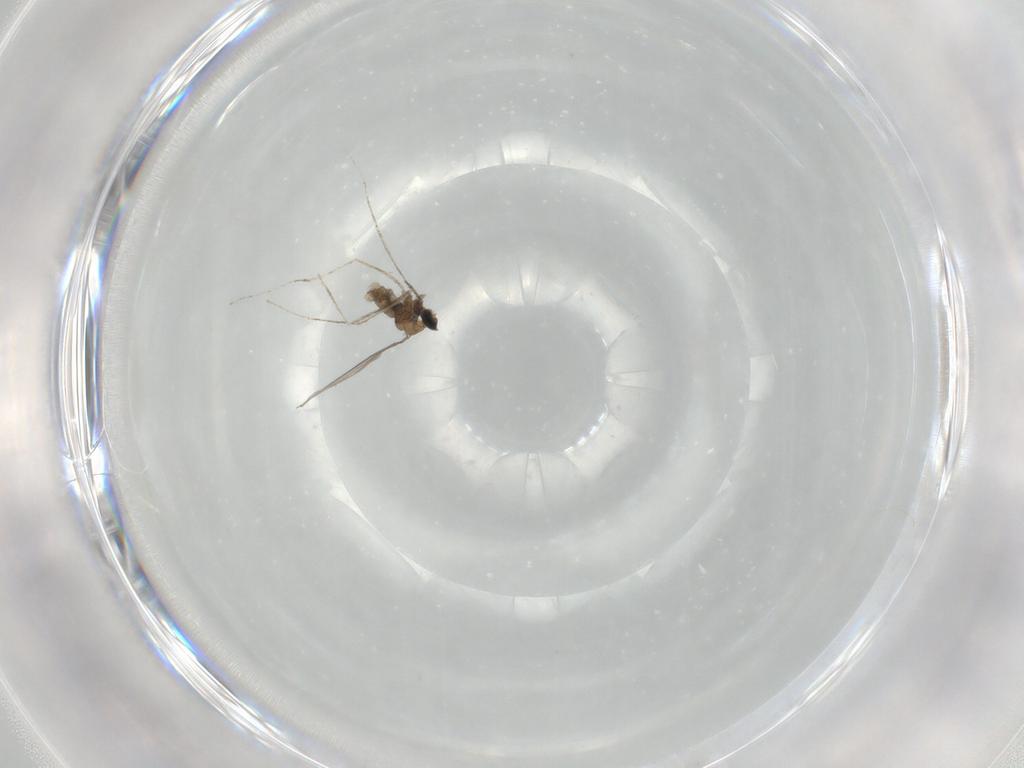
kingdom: Animalia
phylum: Arthropoda
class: Insecta
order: Diptera
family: Cecidomyiidae
